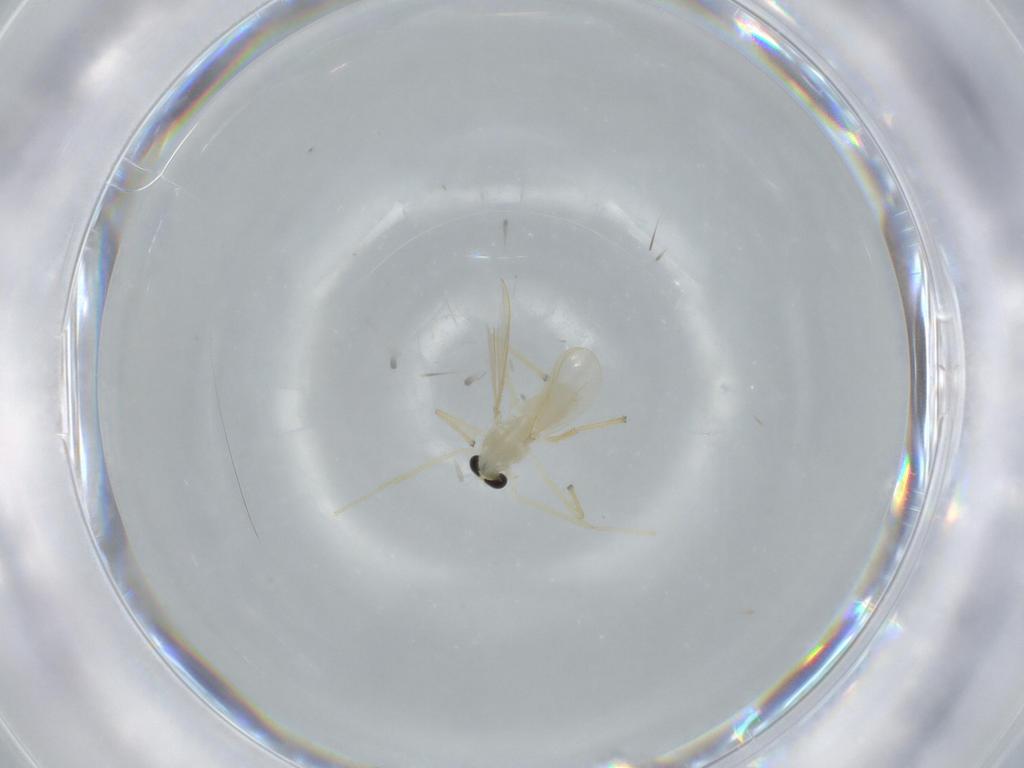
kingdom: Animalia
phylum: Arthropoda
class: Insecta
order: Diptera
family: Chironomidae
